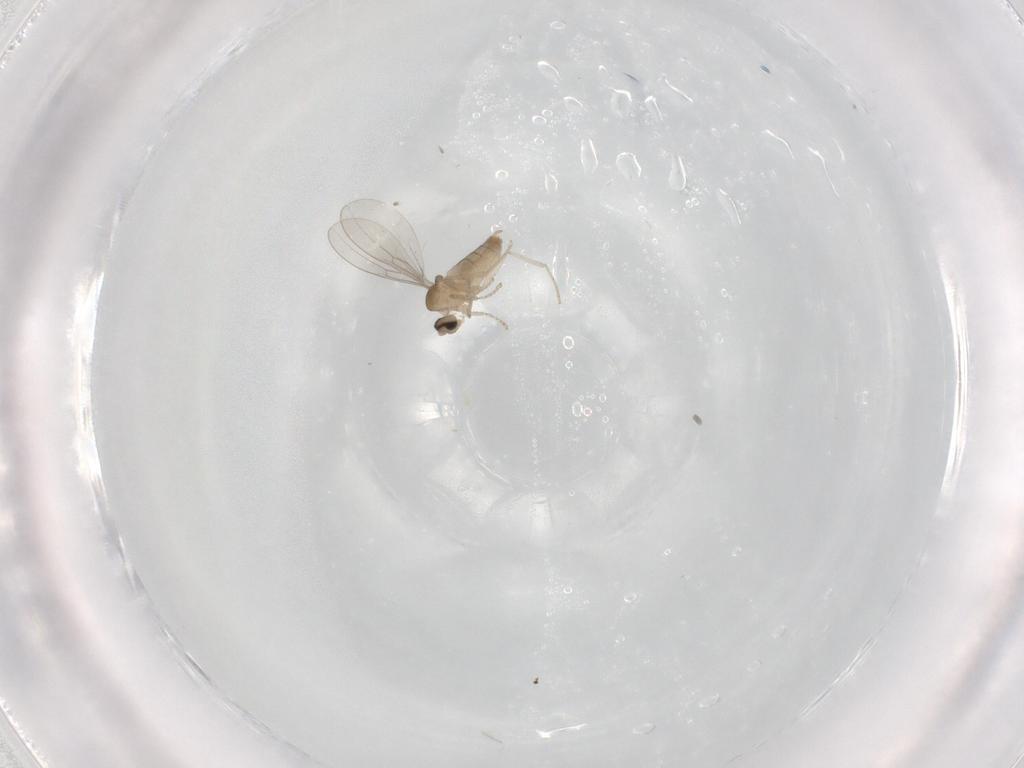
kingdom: Animalia
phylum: Arthropoda
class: Insecta
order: Diptera
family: Cecidomyiidae
